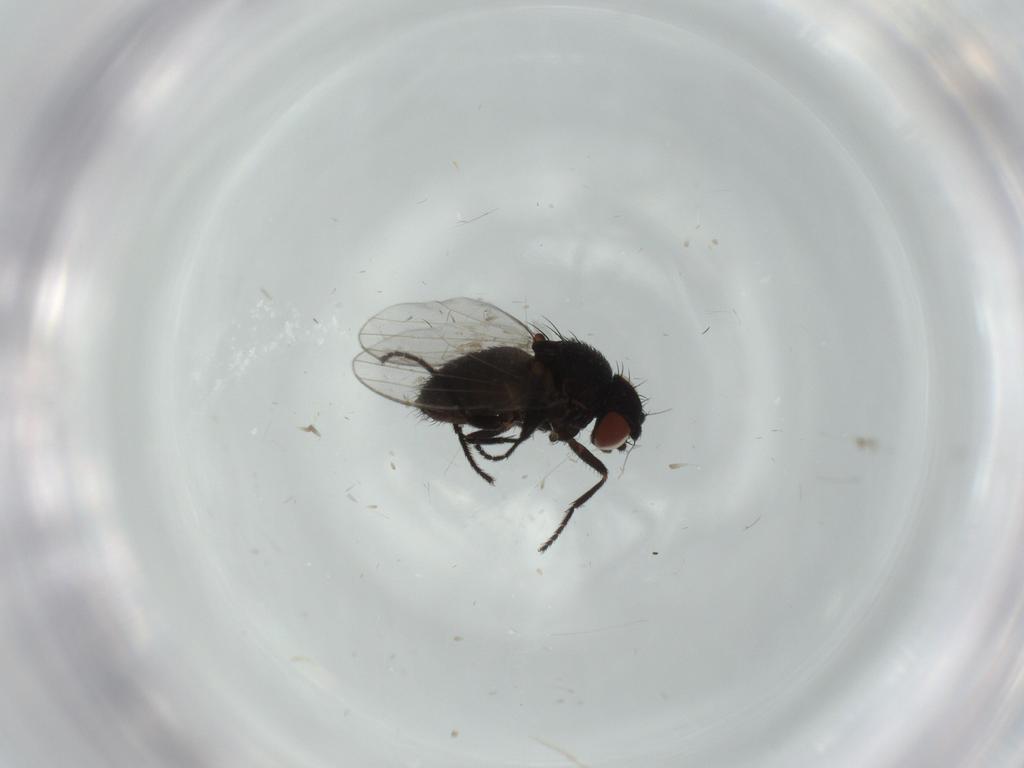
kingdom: Animalia
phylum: Arthropoda
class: Insecta
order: Diptera
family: Milichiidae
